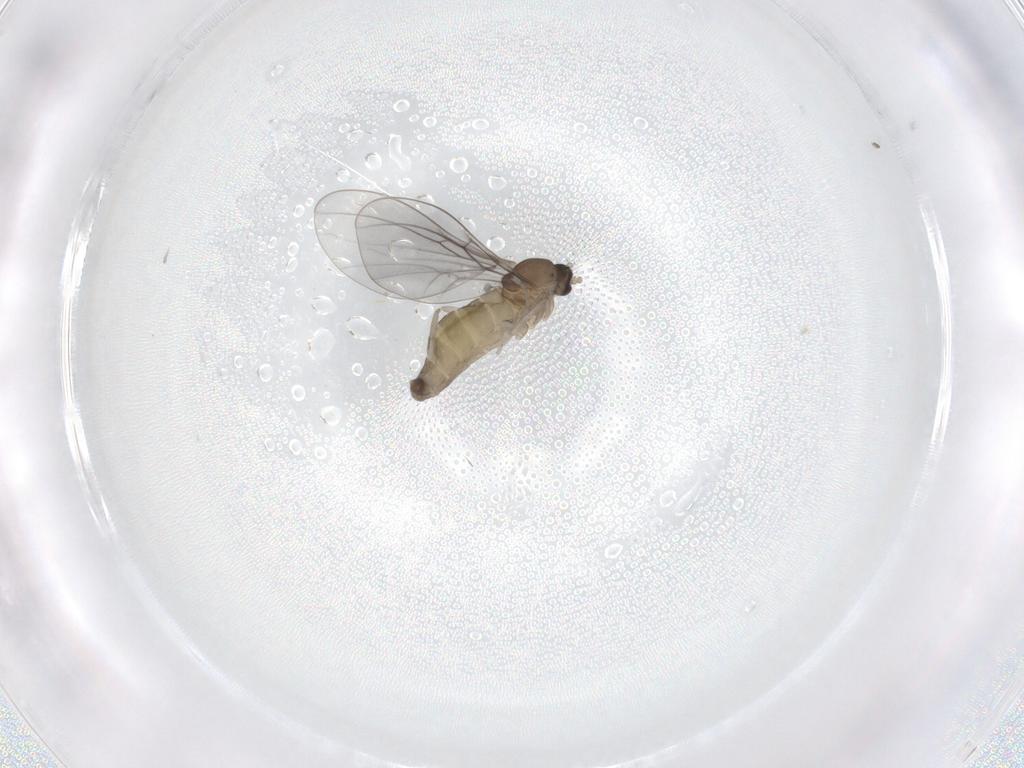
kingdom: Animalia
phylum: Arthropoda
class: Insecta
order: Diptera
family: Cecidomyiidae
